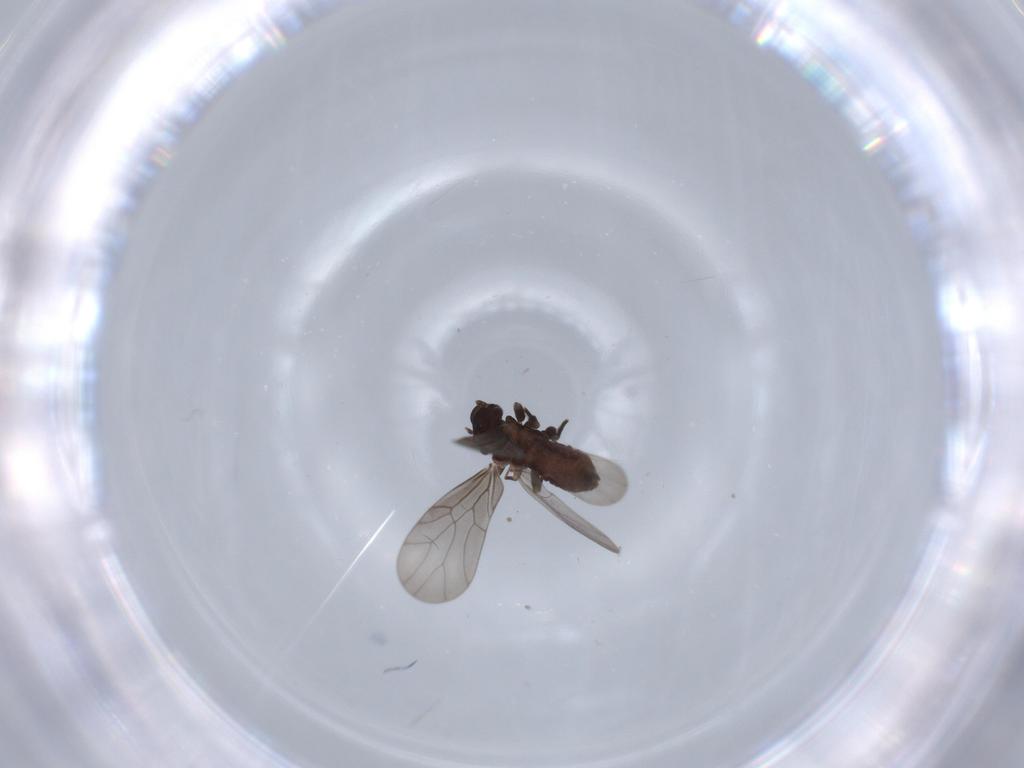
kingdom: Animalia
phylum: Arthropoda
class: Insecta
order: Psocodea
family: Lepidopsocidae
